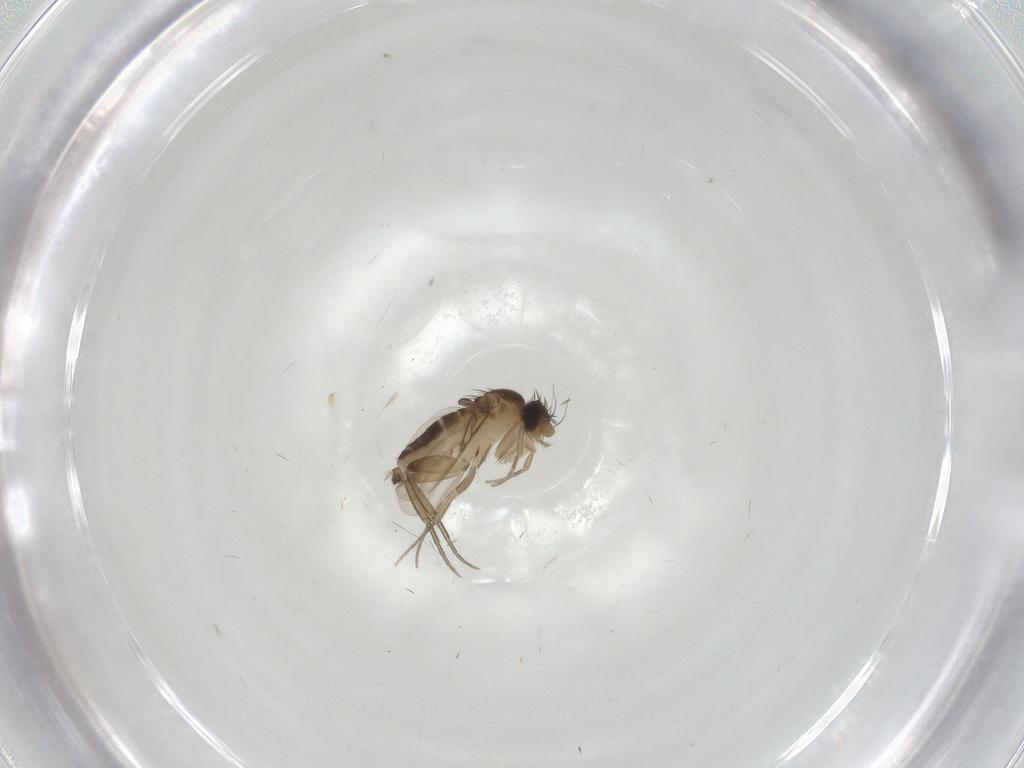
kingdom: Animalia
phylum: Arthropoda
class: Insecta
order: Diptera
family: Phoridae
